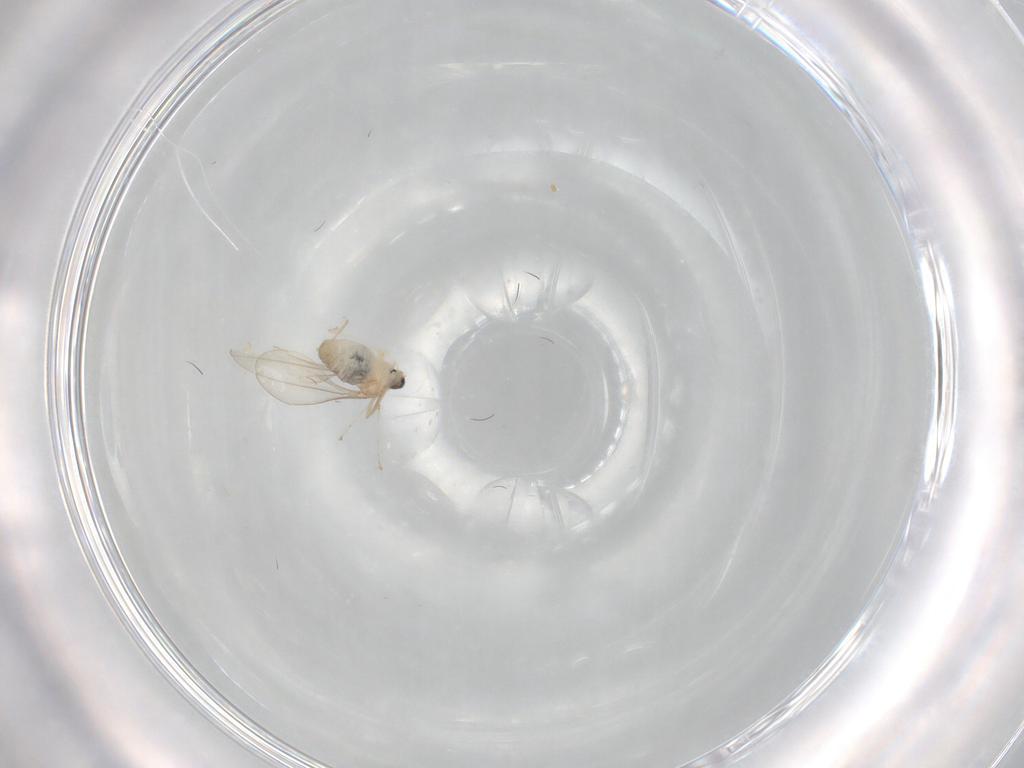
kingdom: Animalia
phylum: Arthropoda
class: Insecta
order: Diptera
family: Cecidomyiidae
